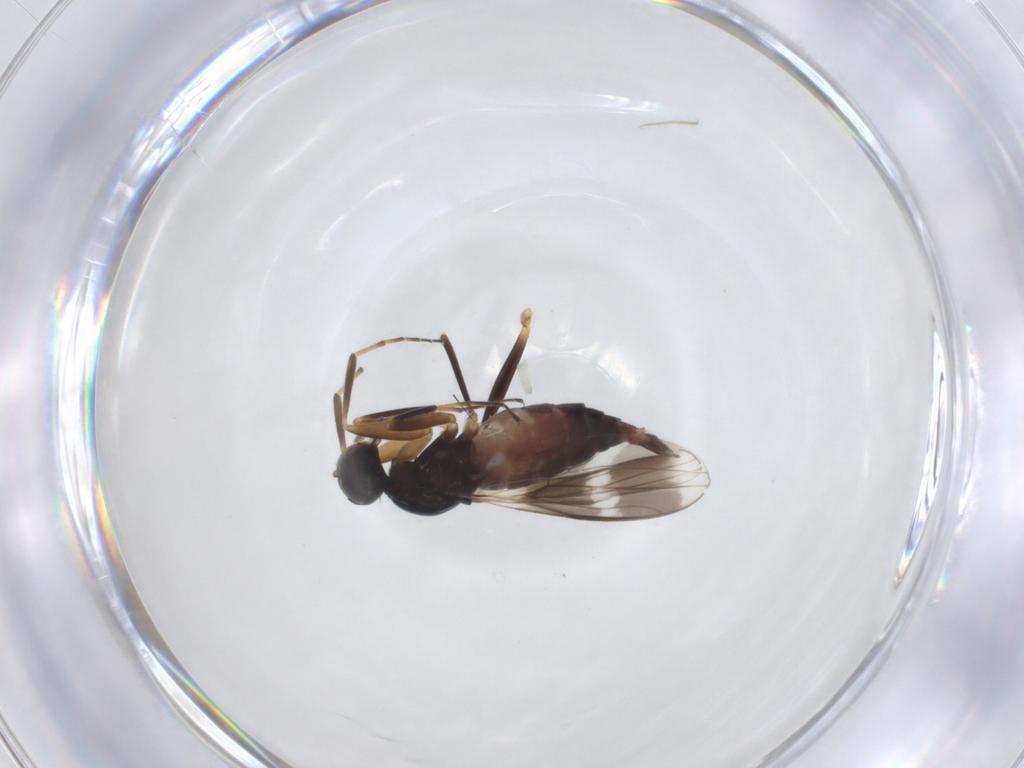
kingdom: Animalia
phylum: Arthropoda
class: Insecta
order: Diptera
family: Hybotidae
